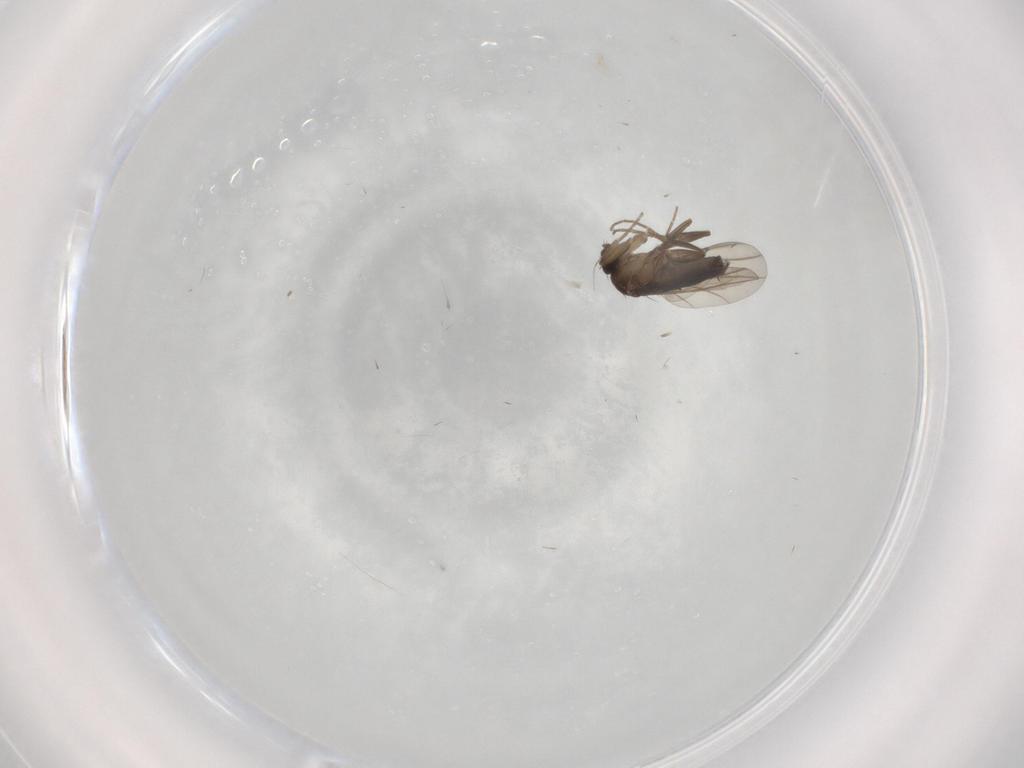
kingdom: Animalia
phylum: Arthropoda
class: Insecta
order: Diptera
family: Phoridae
